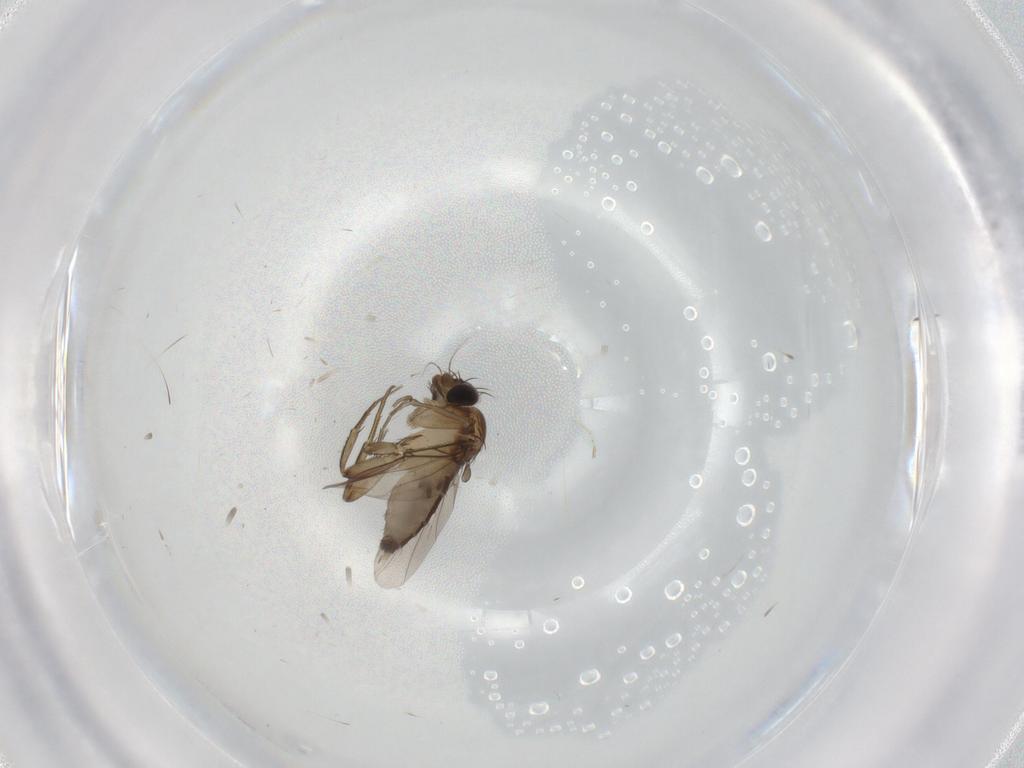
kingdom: Animalia
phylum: Arthropoda
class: Insecta
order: Diptera
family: Phoridae
